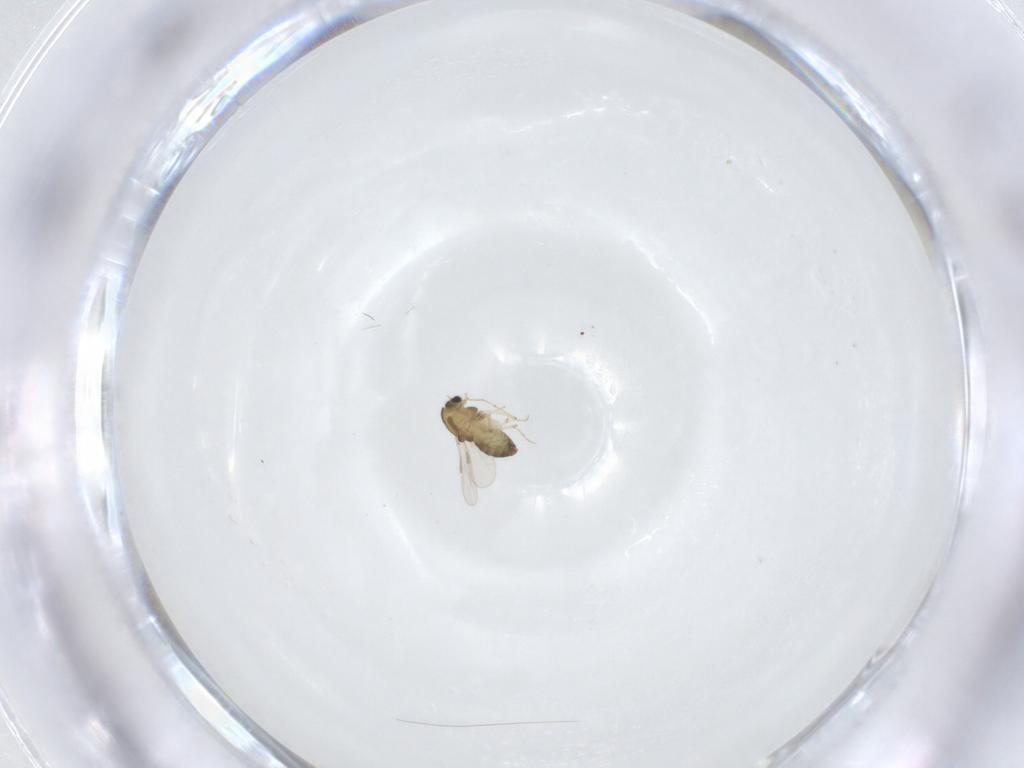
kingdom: Animalia
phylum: Arthropoda
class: Insecta
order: Diptera
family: Chironomidae
